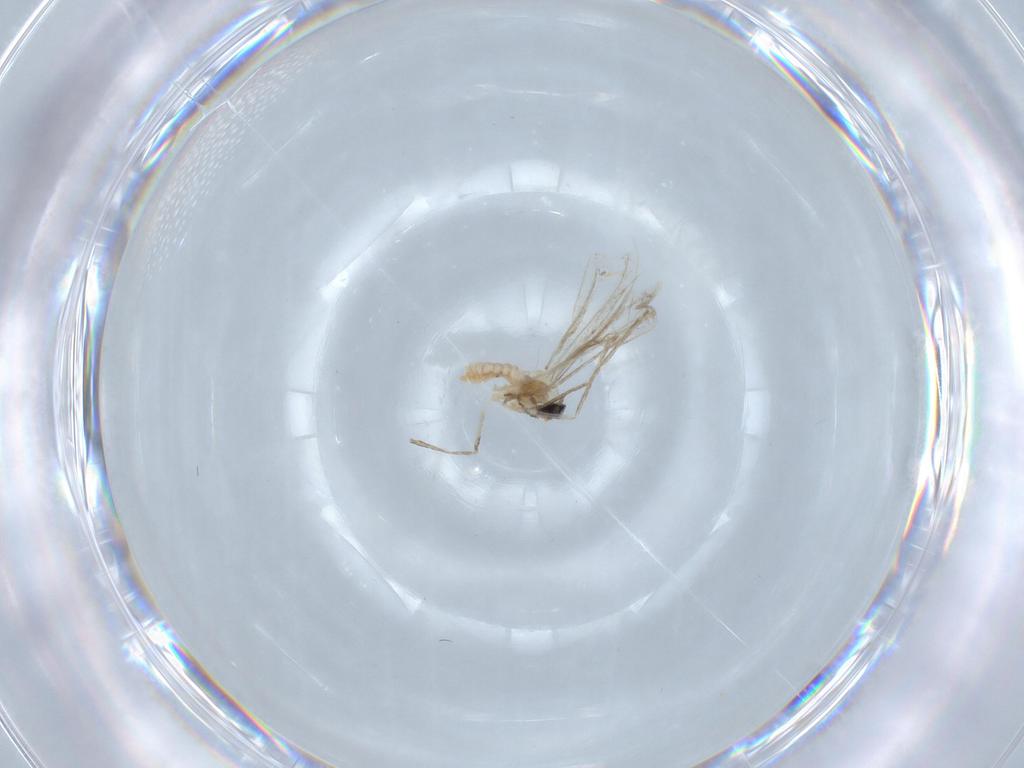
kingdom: Animalia
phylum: Arthropoda
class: Insecta
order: Diptera
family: Cecidomyiidae
